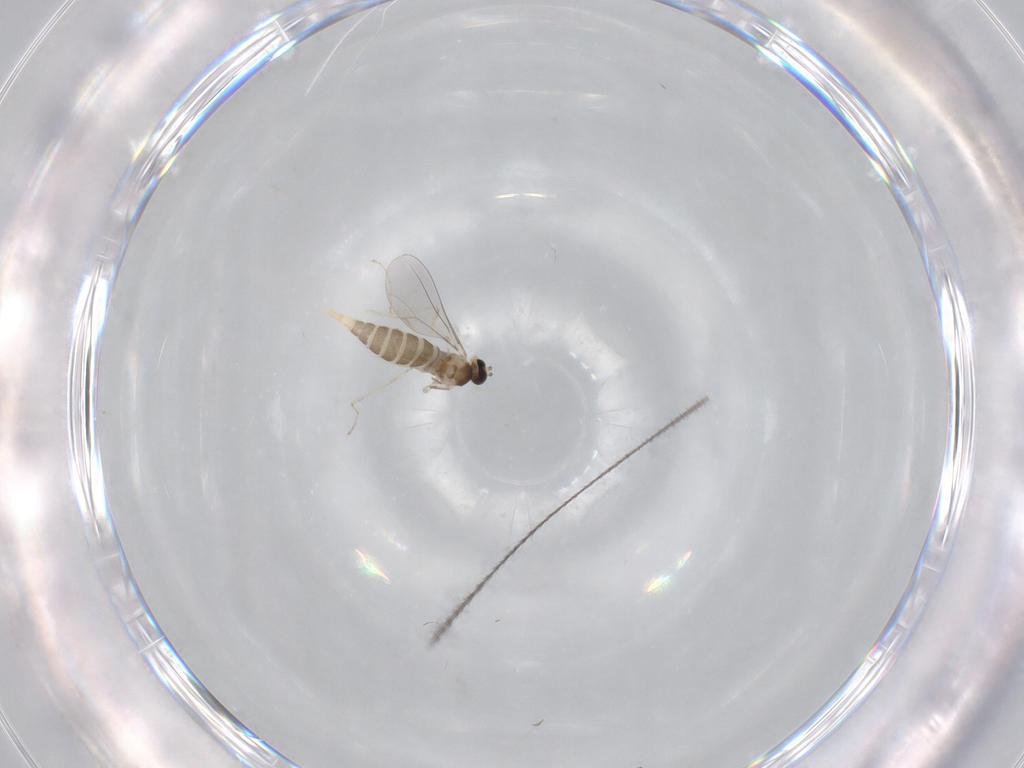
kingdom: Animalia
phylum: Arthropoda
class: Insecta
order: Diptera
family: Cecidomyiidae
